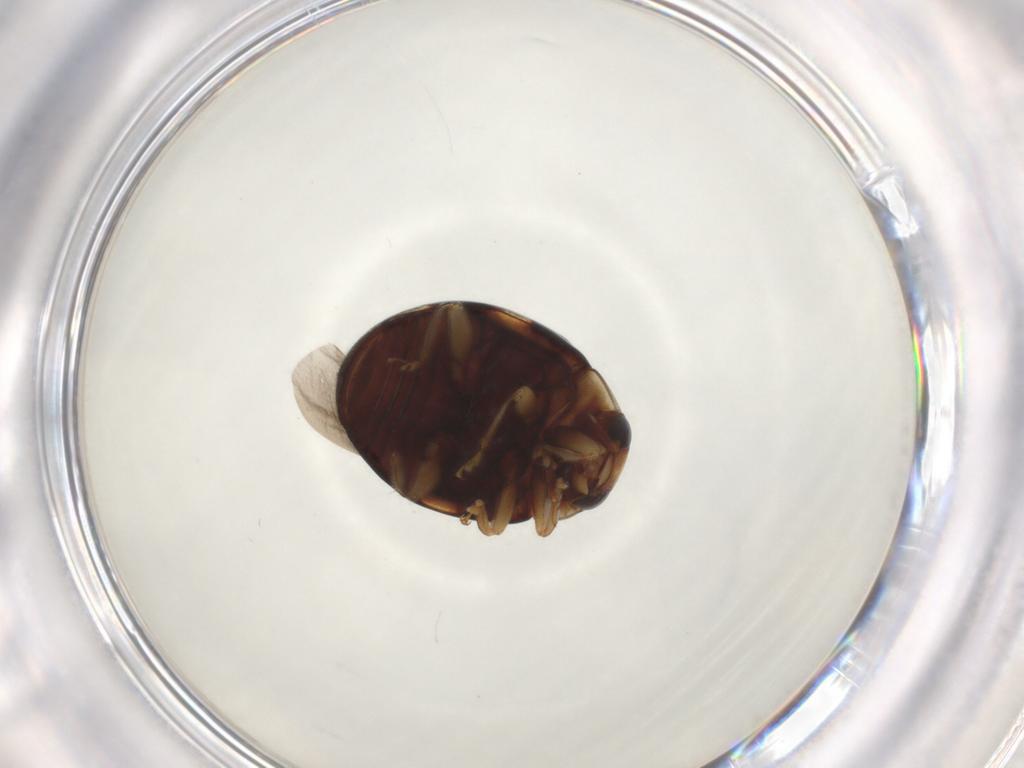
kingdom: Animalia
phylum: Arthropoda
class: Insecta
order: Coleoptera
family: Coccinellidae
